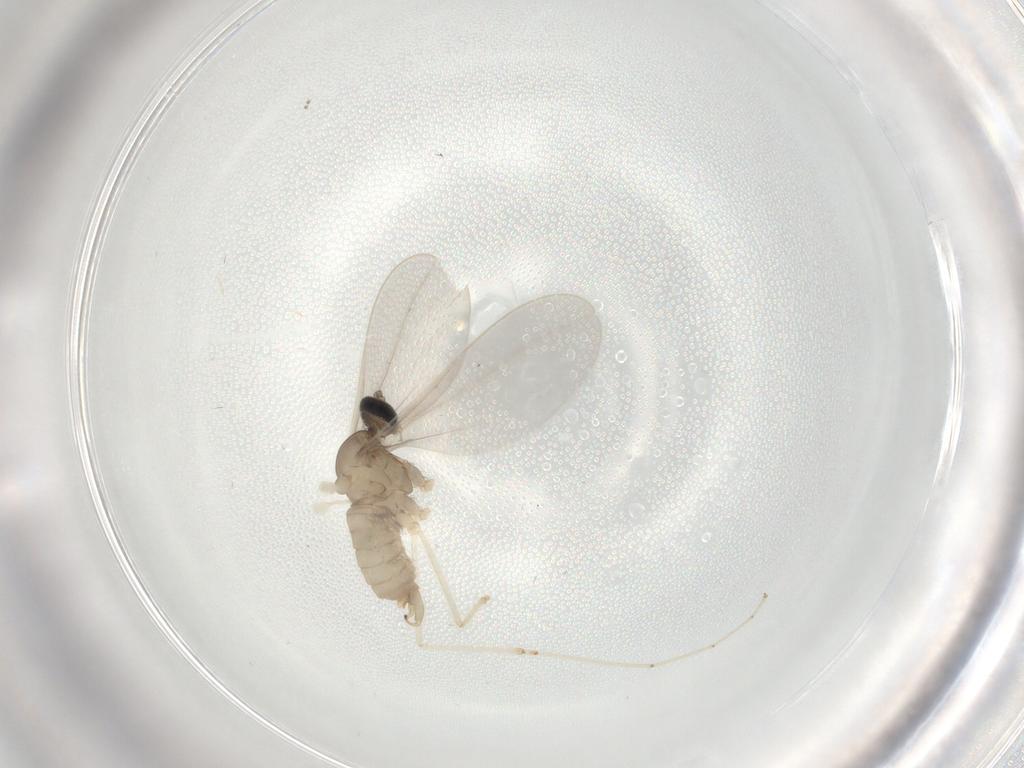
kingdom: Animalia
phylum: Arthropoda
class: Insecta
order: Diptera
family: Cecidomyiidae
